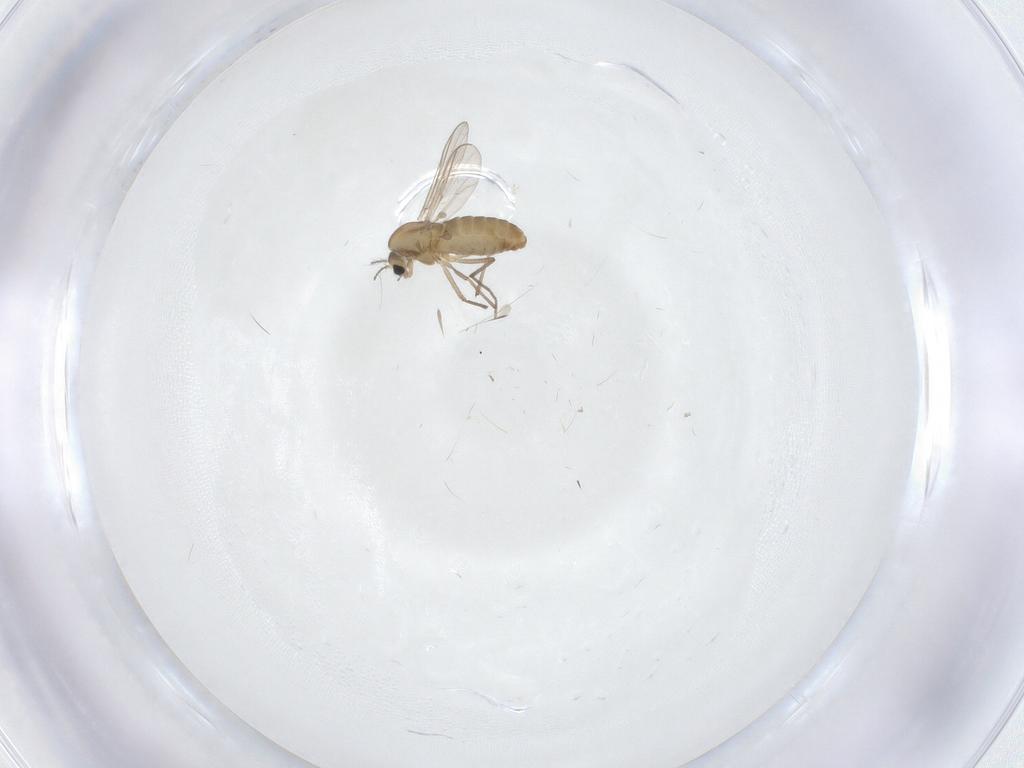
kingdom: Animalia
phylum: Arthropoda
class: Insecta
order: Diptera
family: Chironomidae
